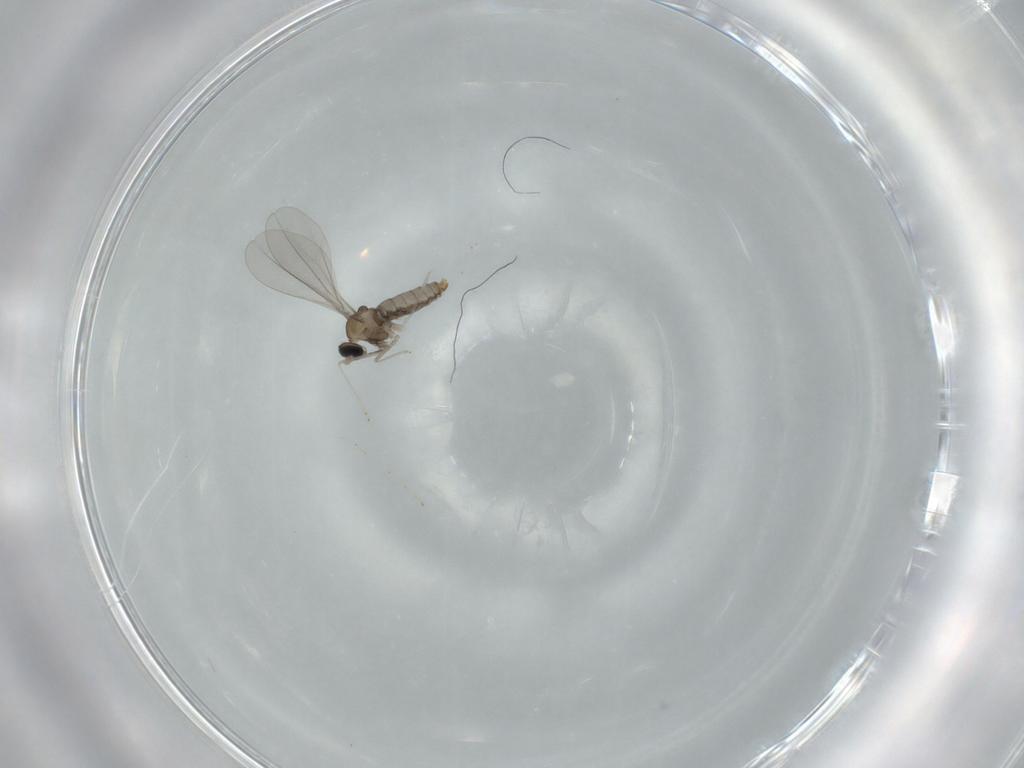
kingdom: Animalia
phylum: Arthropoda
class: Insecta
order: Diptera
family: Cecidomyiidae
